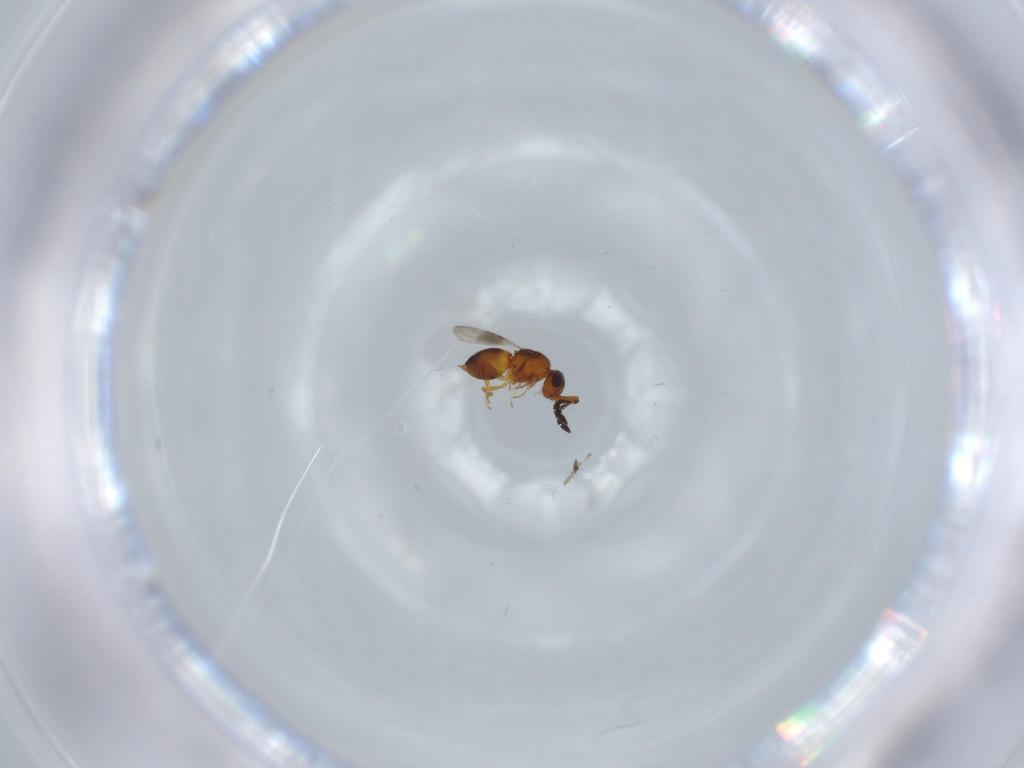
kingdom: Animalia
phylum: Arthropoda
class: Insecta
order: Hymenoptera
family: Ceraphronidae
